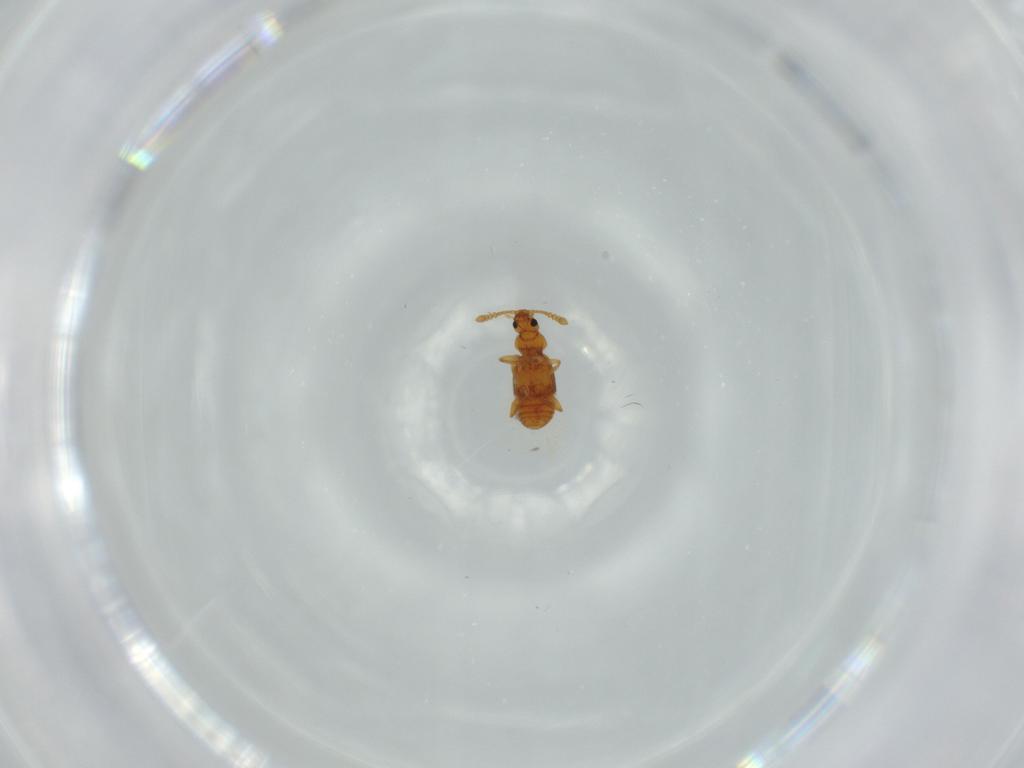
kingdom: Animalia
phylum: Arthropoda
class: Insecta
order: Coleoptera
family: Staphylinidae
